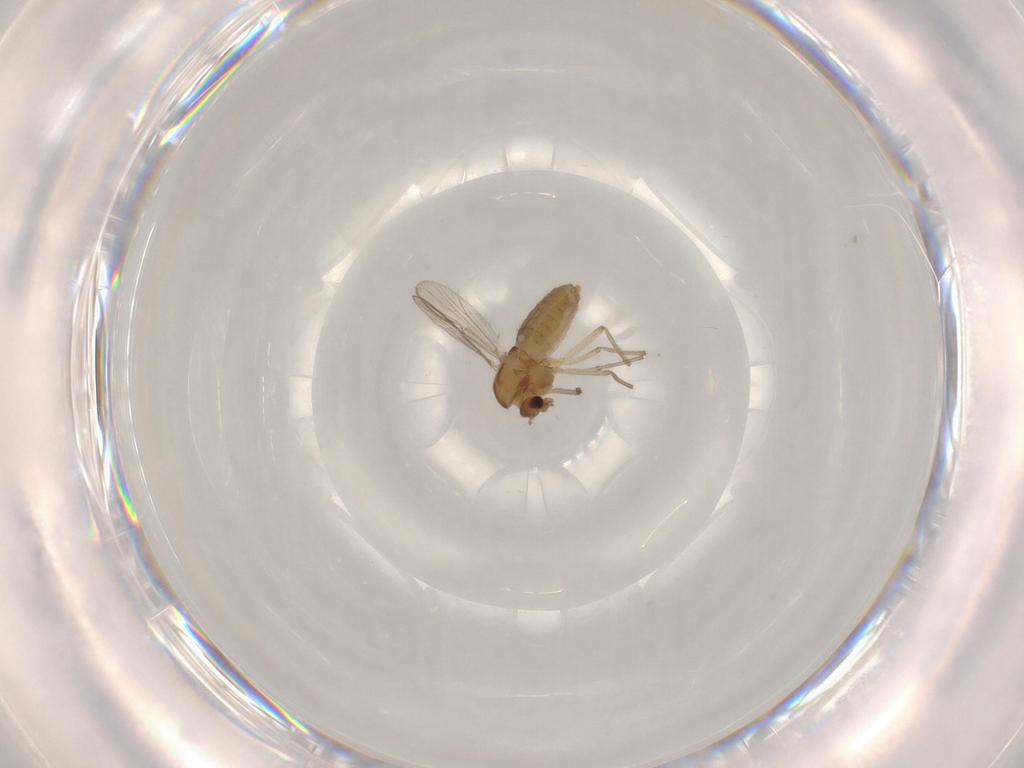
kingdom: Animalia
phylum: Arthropoda
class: Insecta
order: Diptera
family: Chironomidae
